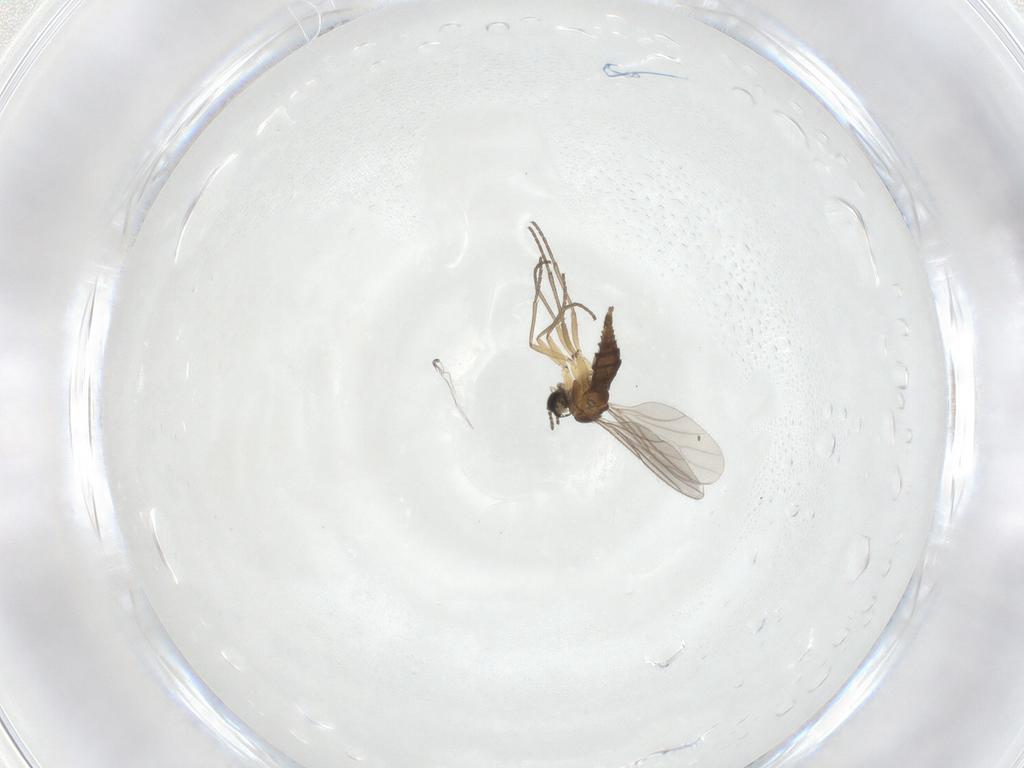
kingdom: Animalia
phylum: Arthropoda
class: Insecta
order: Diptera
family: Sciaridae
